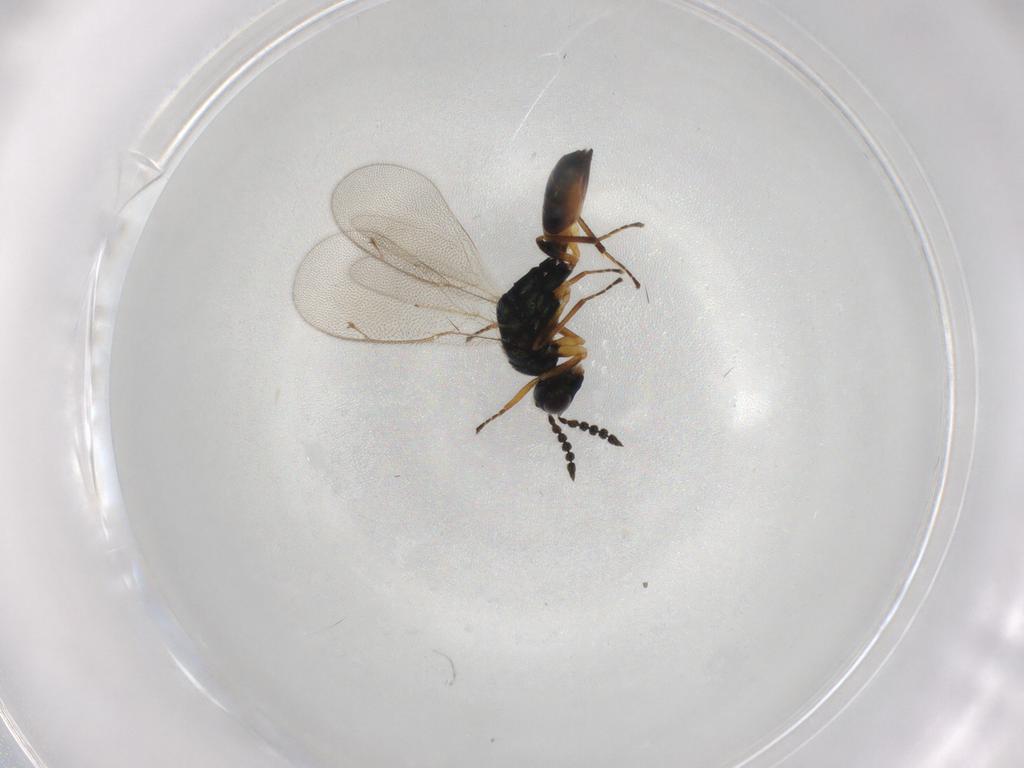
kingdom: Animalia
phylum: Arthropoda
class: Insecta
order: Hymenoptera
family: Eulophidae
